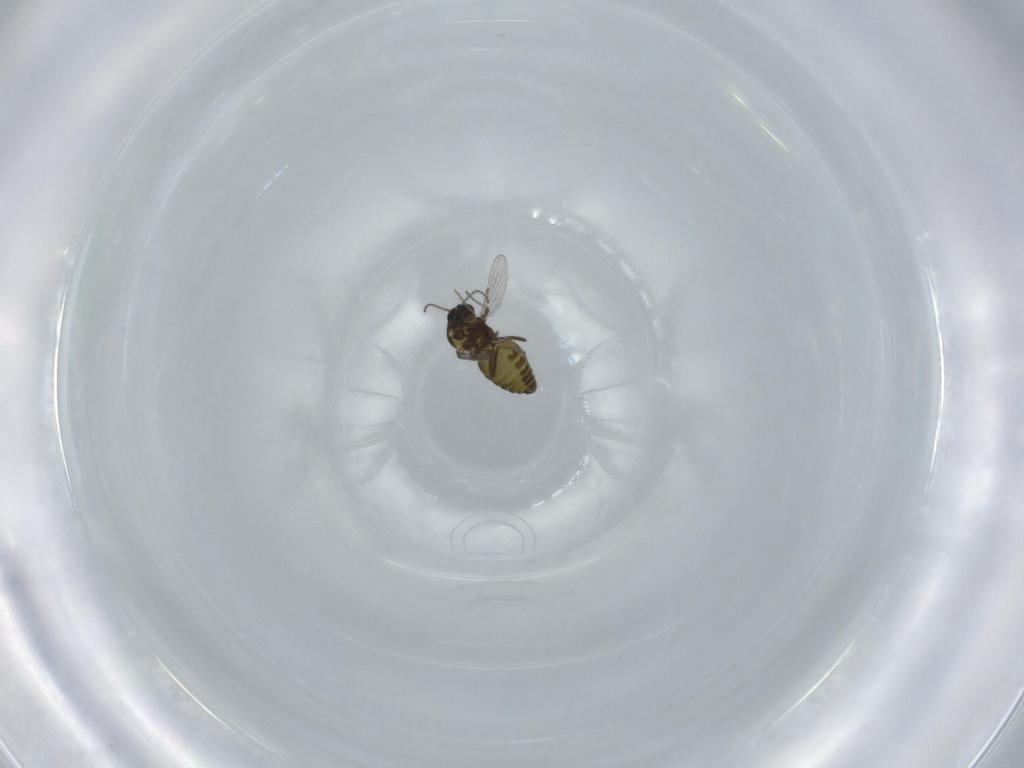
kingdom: Animalia
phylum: Arthropoda
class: Insecta
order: Diptera
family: Ceratopogonidae
